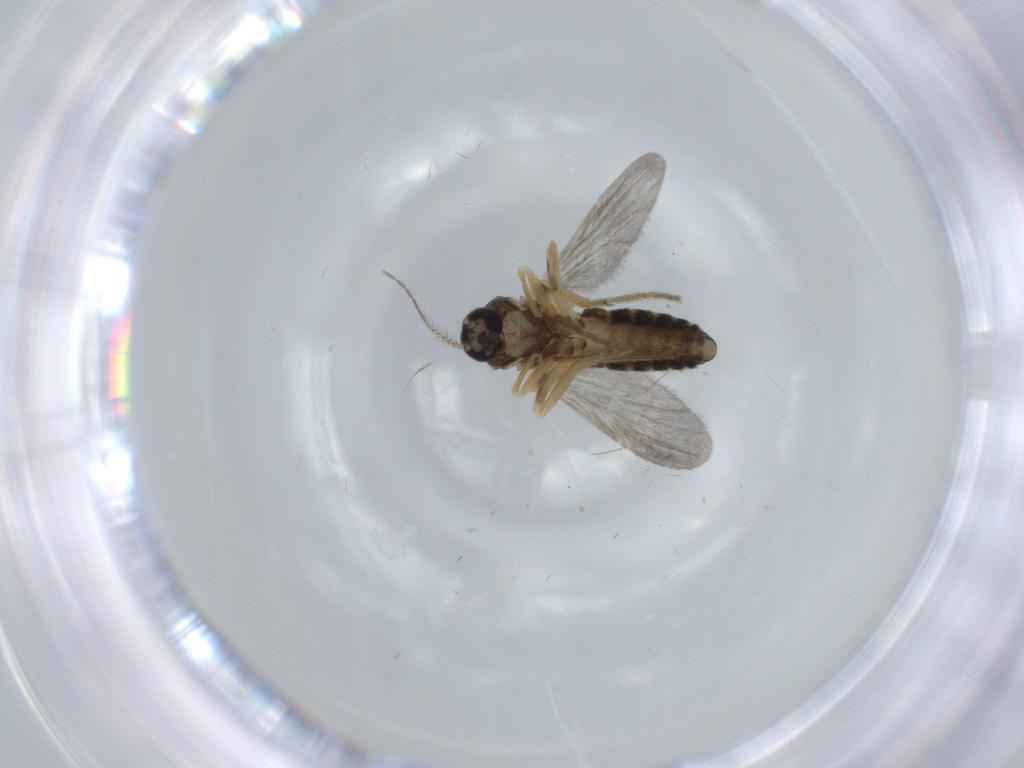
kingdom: Animalia
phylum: Arthropoda
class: Insecta
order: Diptera
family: Ceratopogonidae
